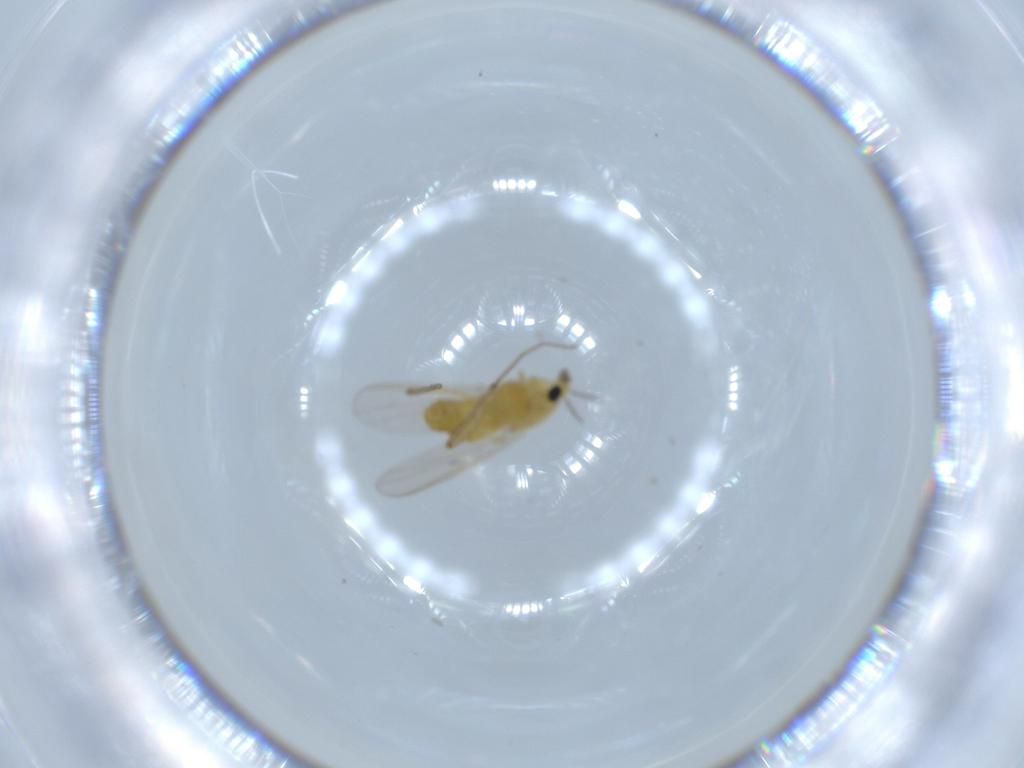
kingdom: Animalia
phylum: Arthropoda
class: Insecta
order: Diptera
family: Chironomidae
